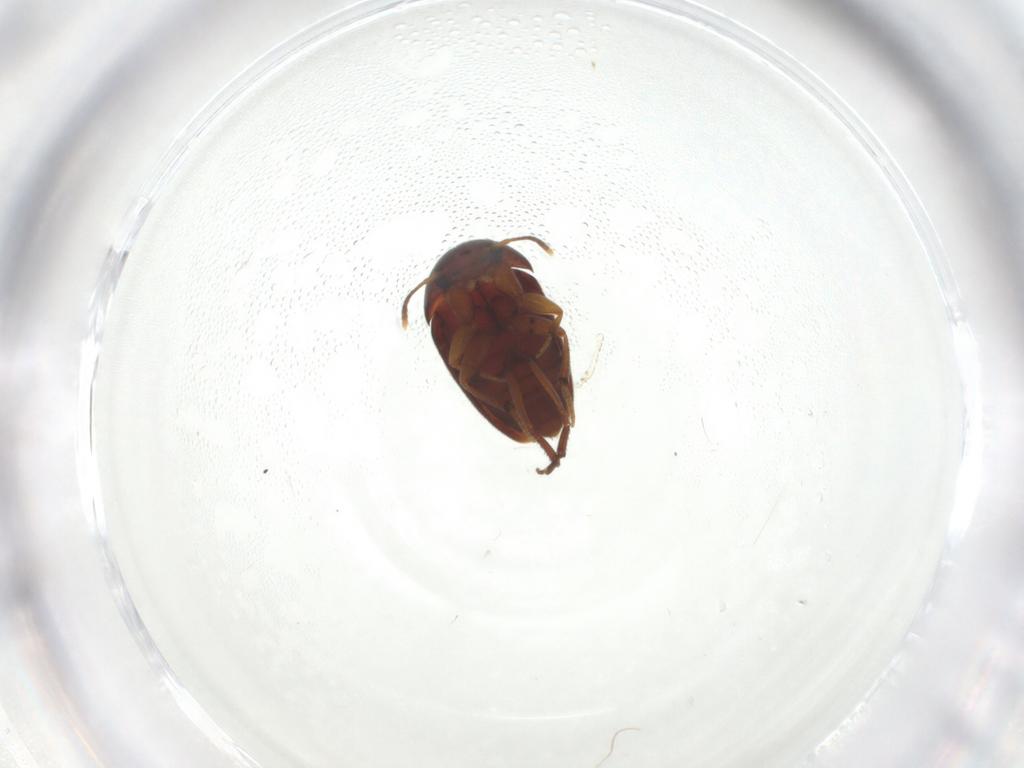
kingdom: Animalia
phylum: Arthropoda
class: Insecta
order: Coleoptera
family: Leiodidae
